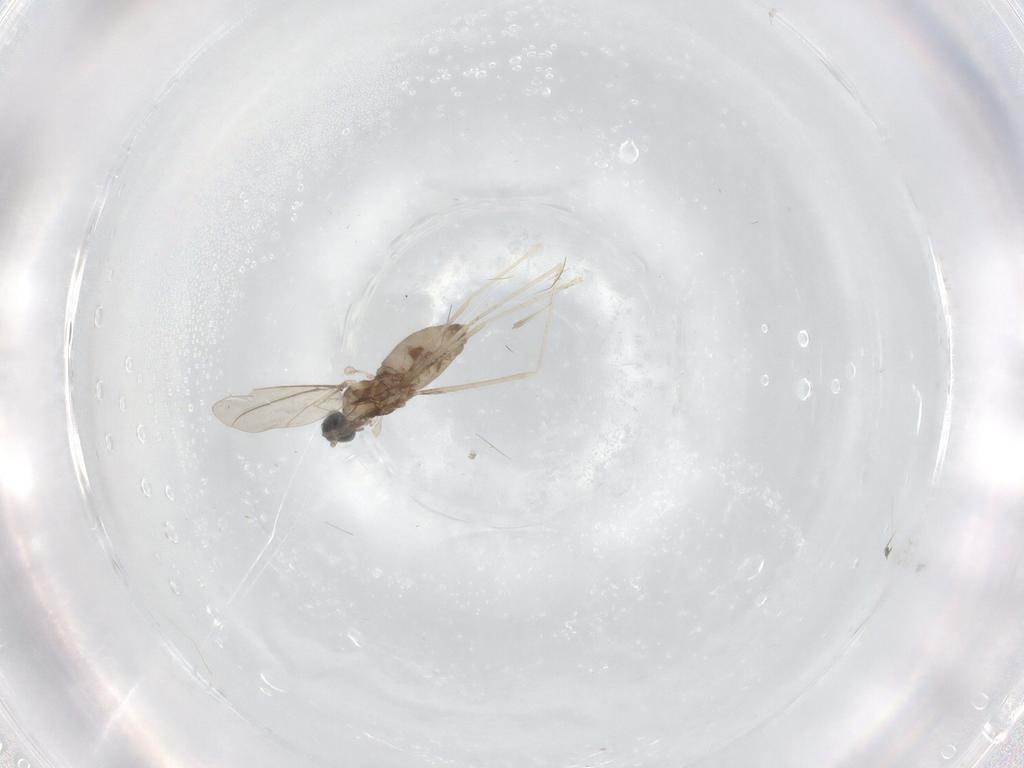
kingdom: Animalia
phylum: Arthropoda
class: Insecta
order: Diptera
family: Cecidomyiidae
